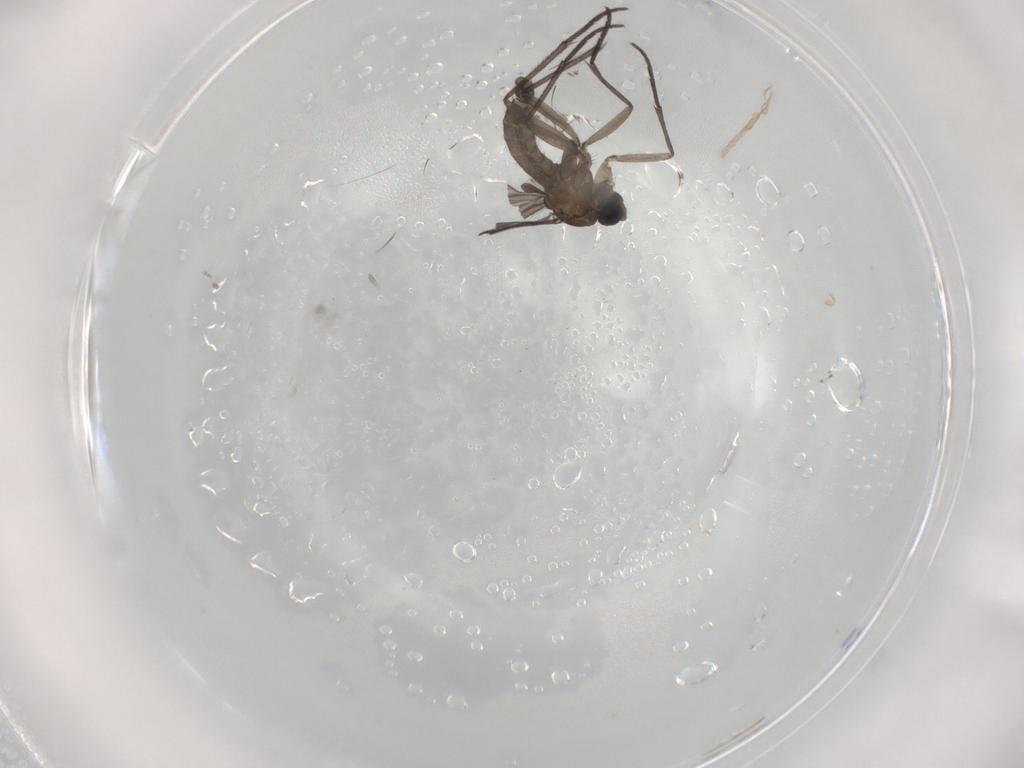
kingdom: Animalia
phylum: Arthropoda
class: Insecta
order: Diptera
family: Sciaridae
